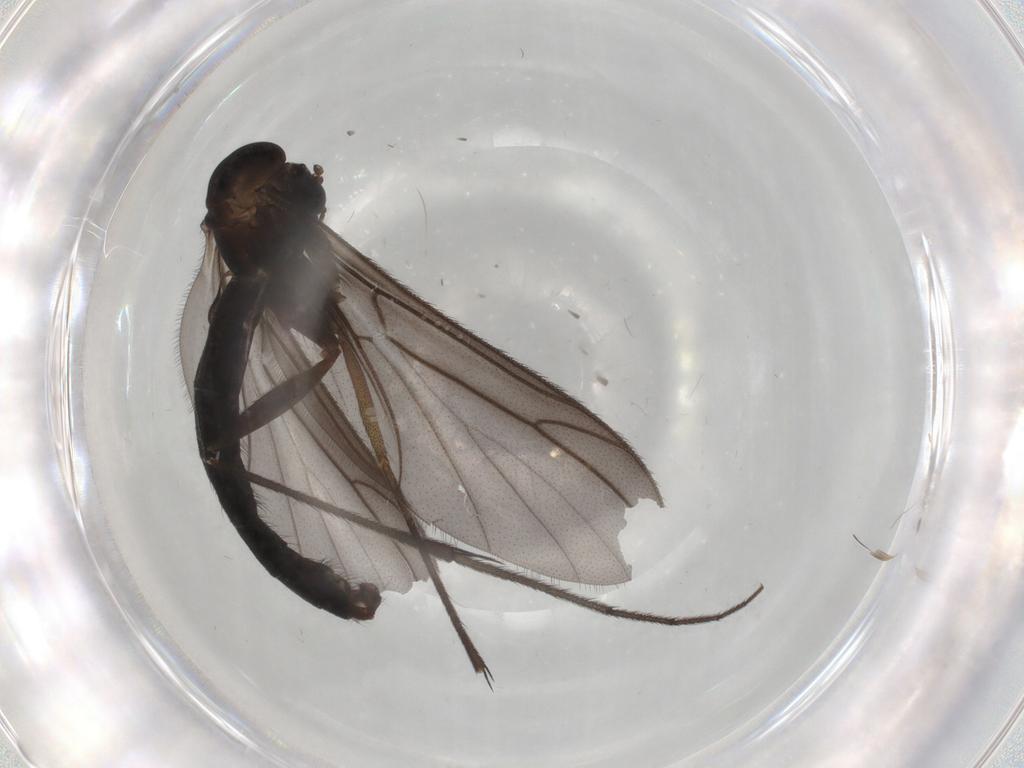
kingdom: Animalia
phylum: Arthropoda
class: Insecta
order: Diptera
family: Ditomyiidae
